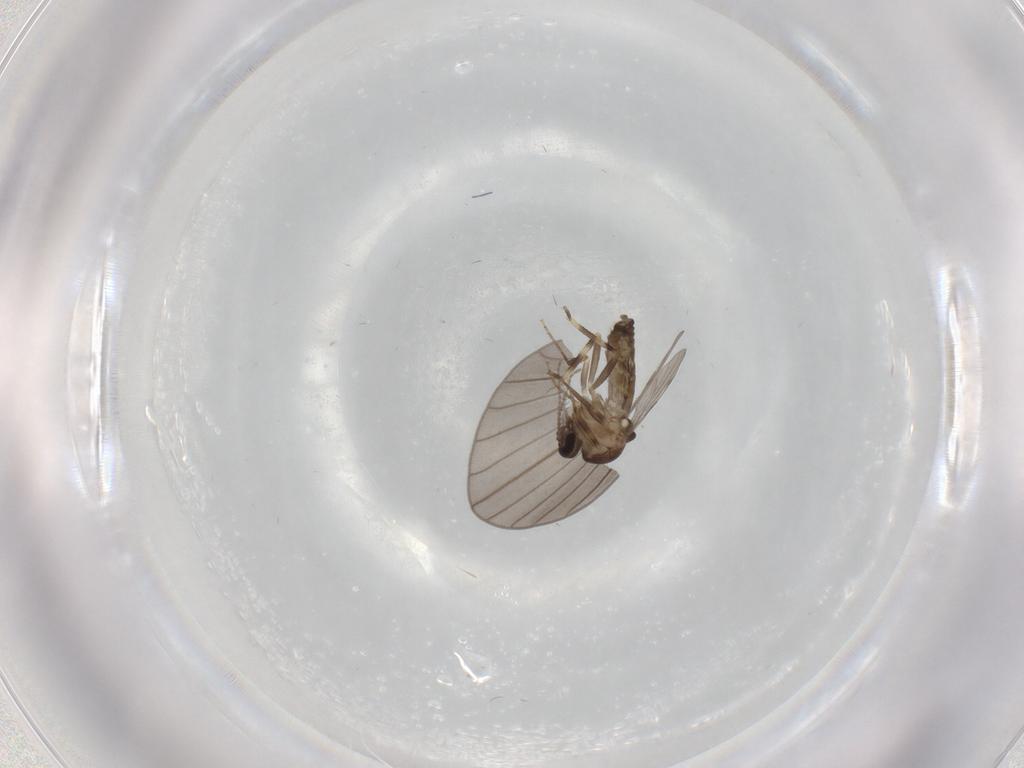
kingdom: Animalia
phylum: Arthropoda
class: Insecta
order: Diptera
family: Ceratopogonidae
